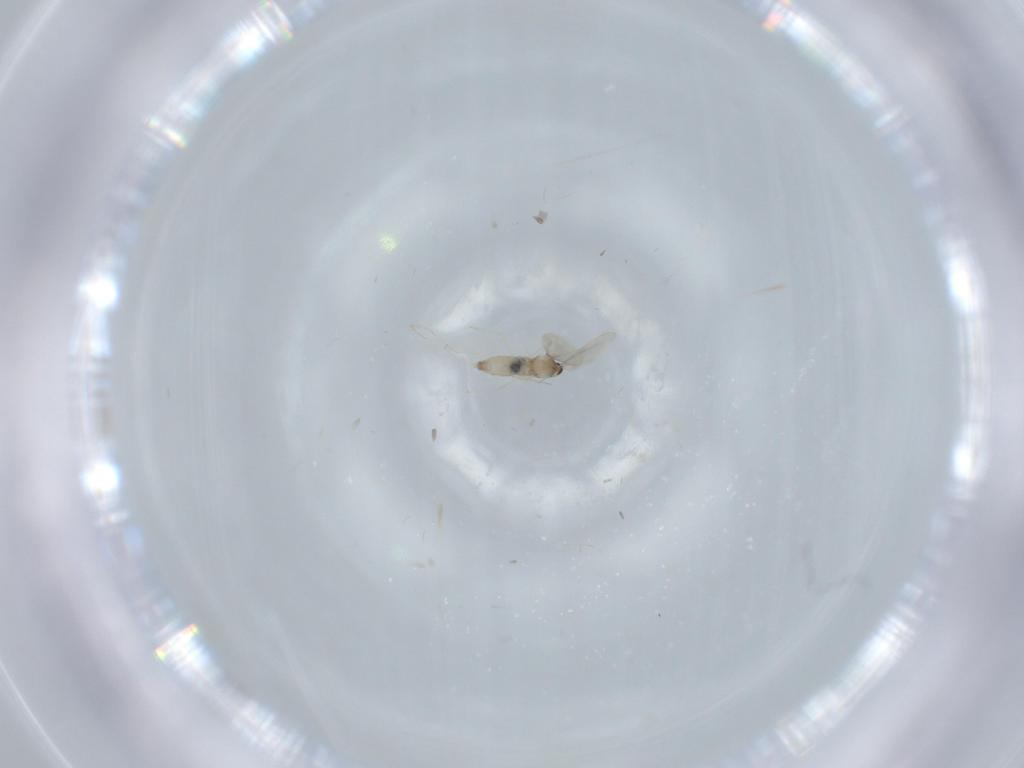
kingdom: Animalia
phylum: Arthropoda
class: Insecta
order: Diptera
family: Cecidomyiidae
